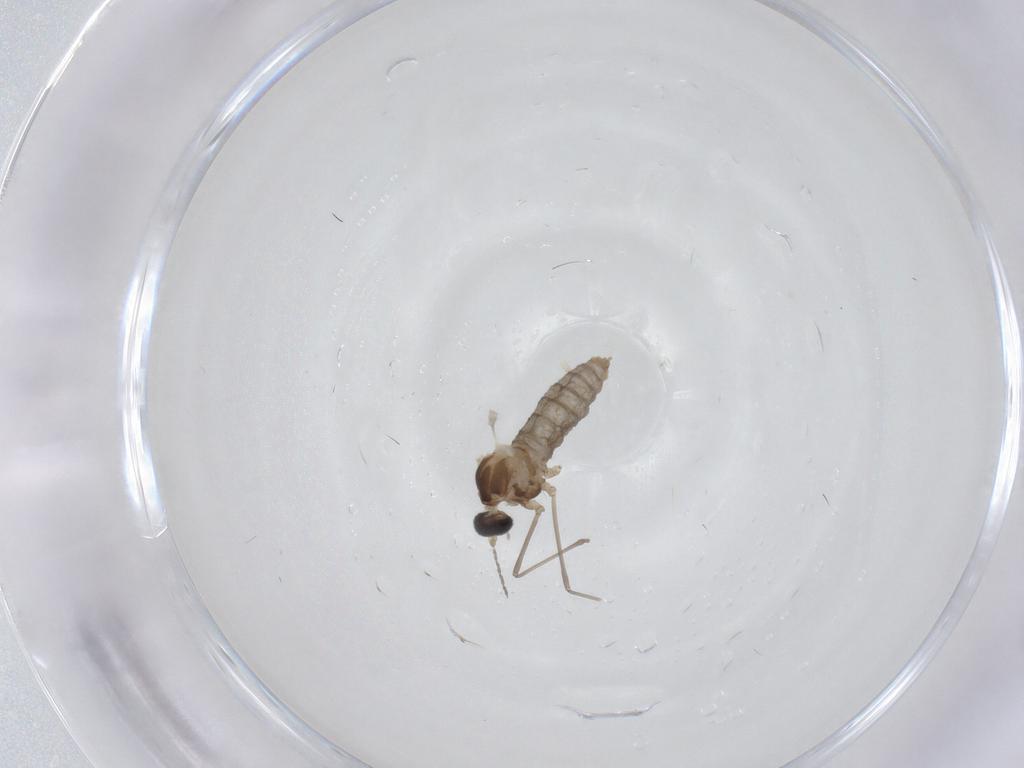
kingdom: Animalia
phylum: Arthropoda
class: Insecta
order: Diptera
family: Cecidomyiidae
